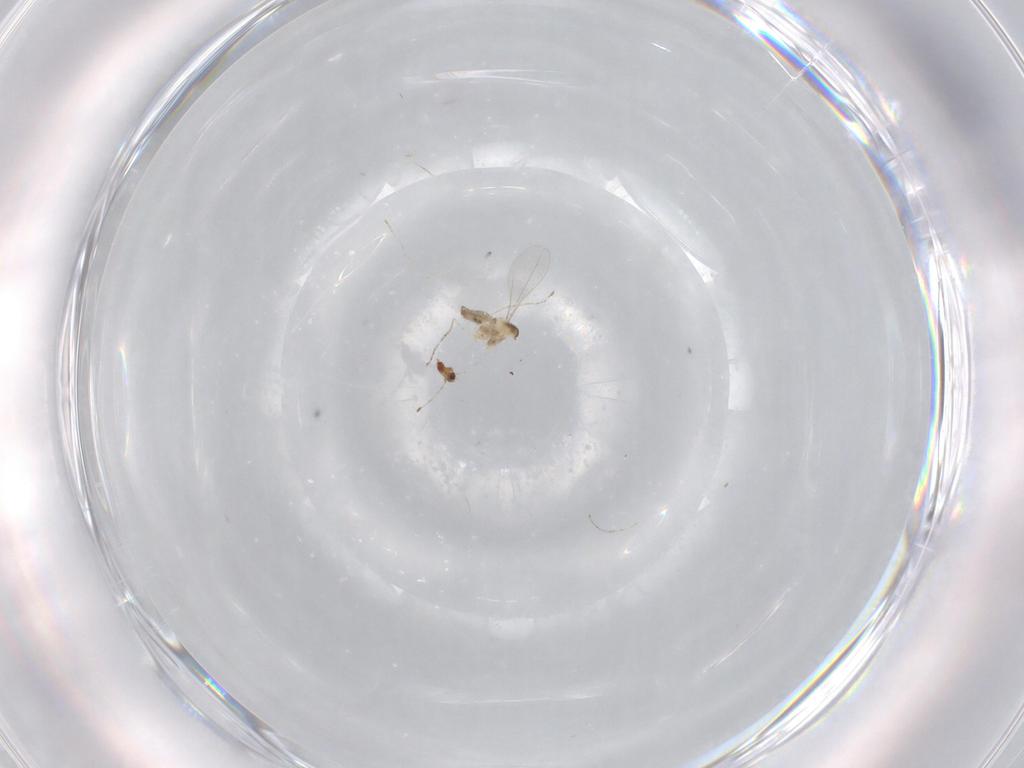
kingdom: Animalia
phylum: Arthropoda
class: Insecta
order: Diptera
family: Cecidomyiidae
